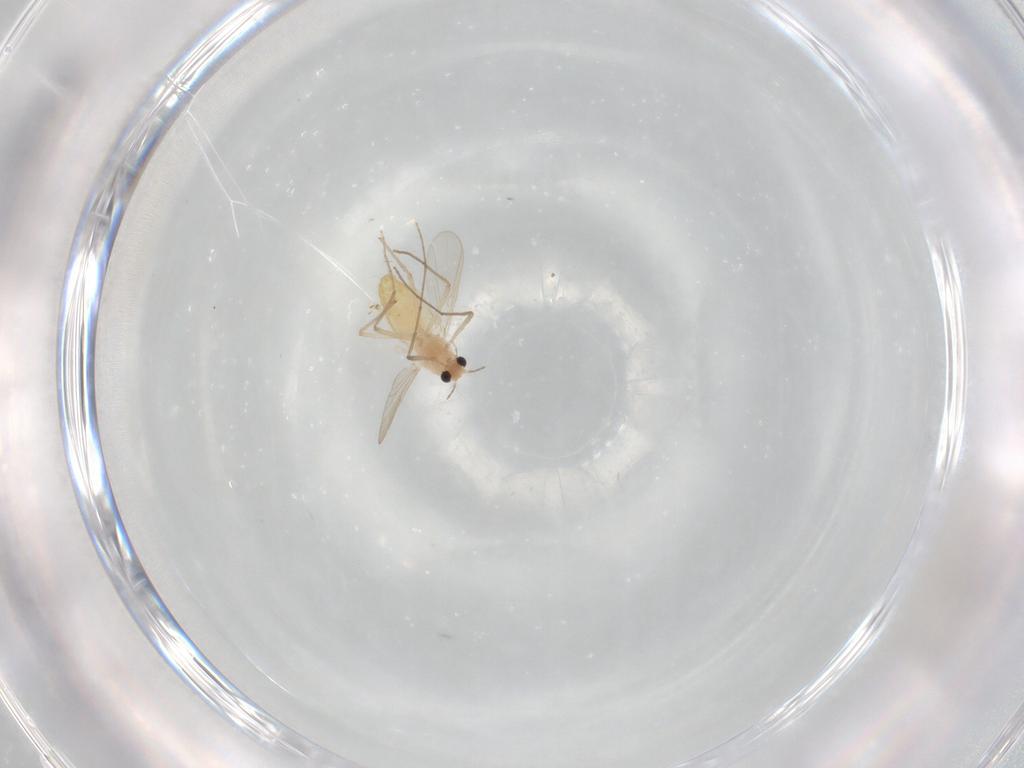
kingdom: Animalia
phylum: Arthropoda
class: Insecta
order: Diptera
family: Chironomidae
